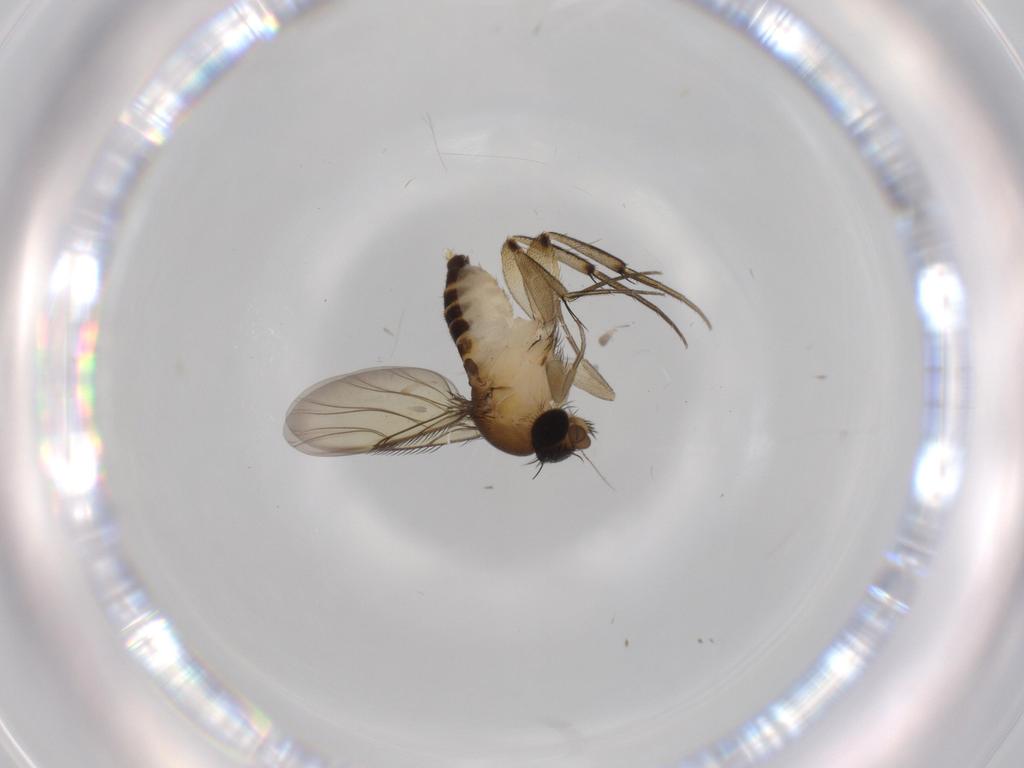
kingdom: Animalia
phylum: Arthropoda
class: Insecta
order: Diptera
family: Phoridae
